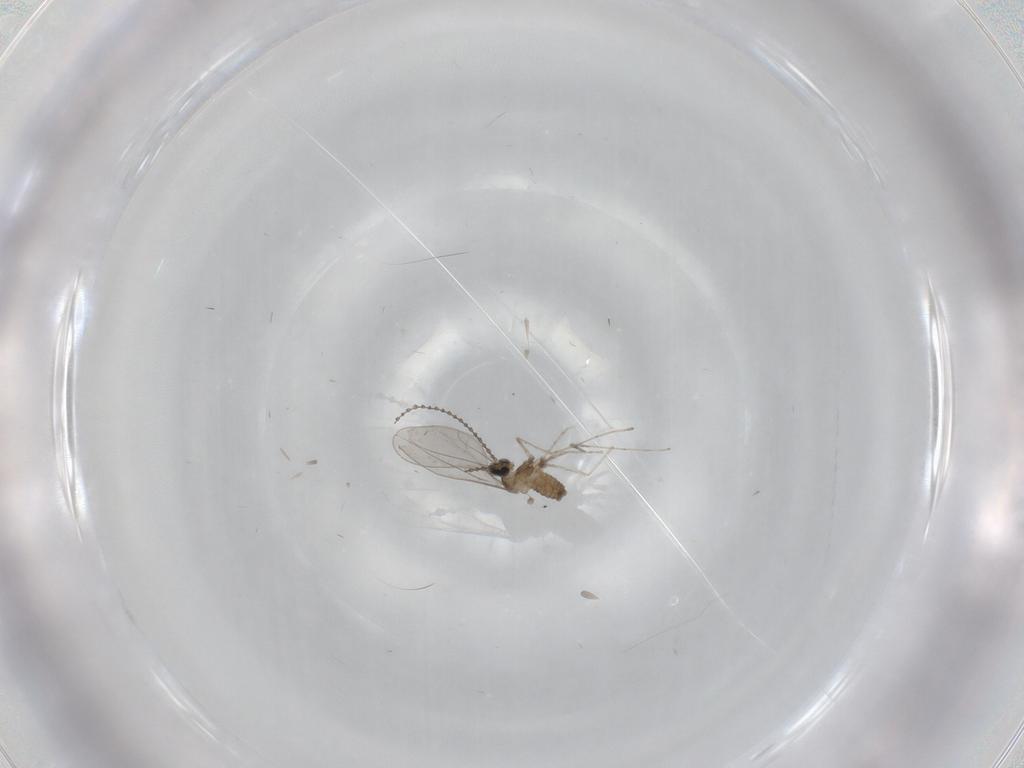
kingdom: Animalia
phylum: Arthropoda
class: Insecta
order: Diptera
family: Cecidomyiidae
